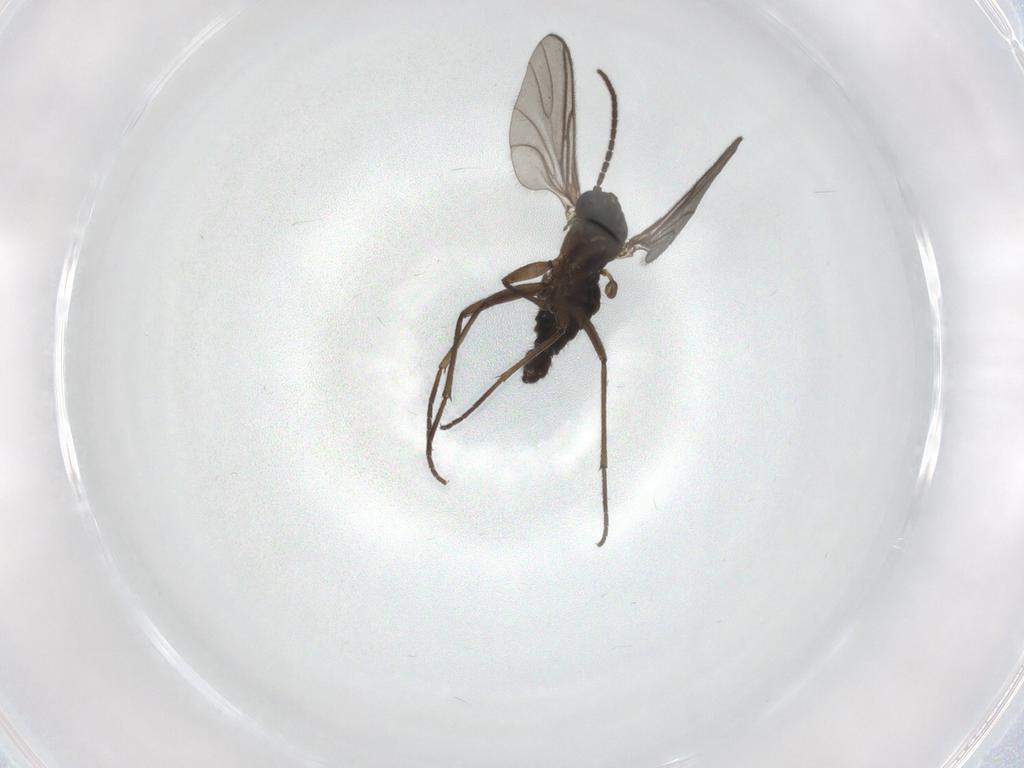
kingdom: Animalia
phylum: Arthropoda
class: Insecta
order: Diptera
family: Sciaridae
